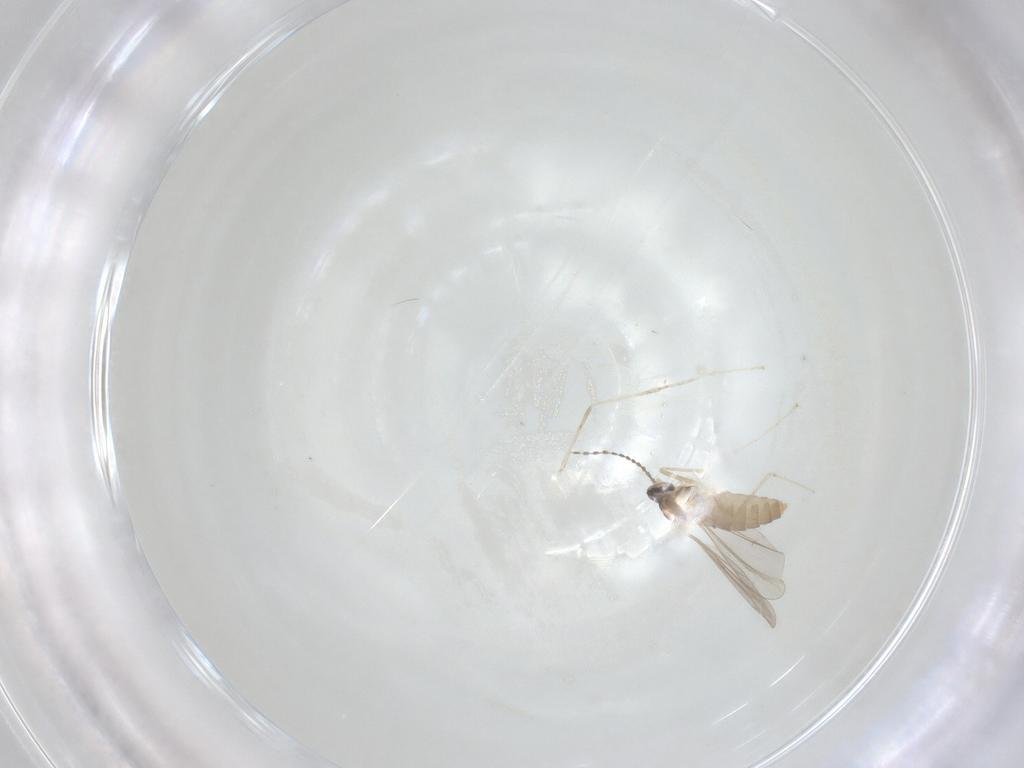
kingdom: Animalia
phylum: Arthropoda
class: Insecta
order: Diptera
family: Cecidomyiidae
